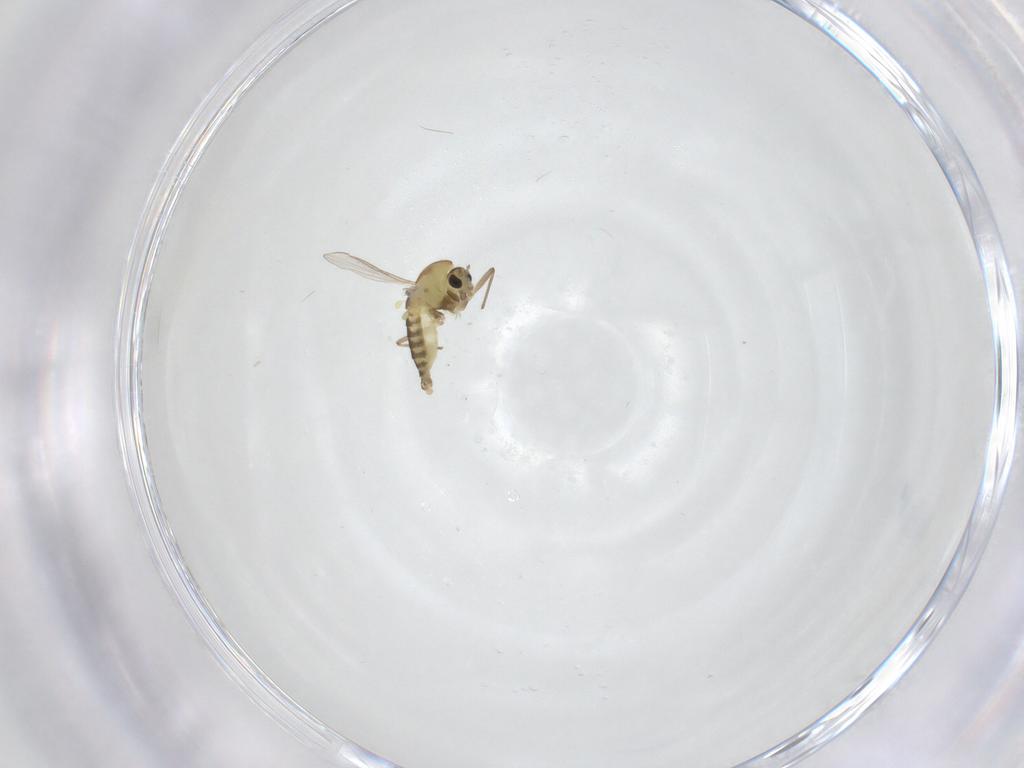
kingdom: Animalia
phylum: Arthropoda
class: Insecta
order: Diptera
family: Chironomidae
